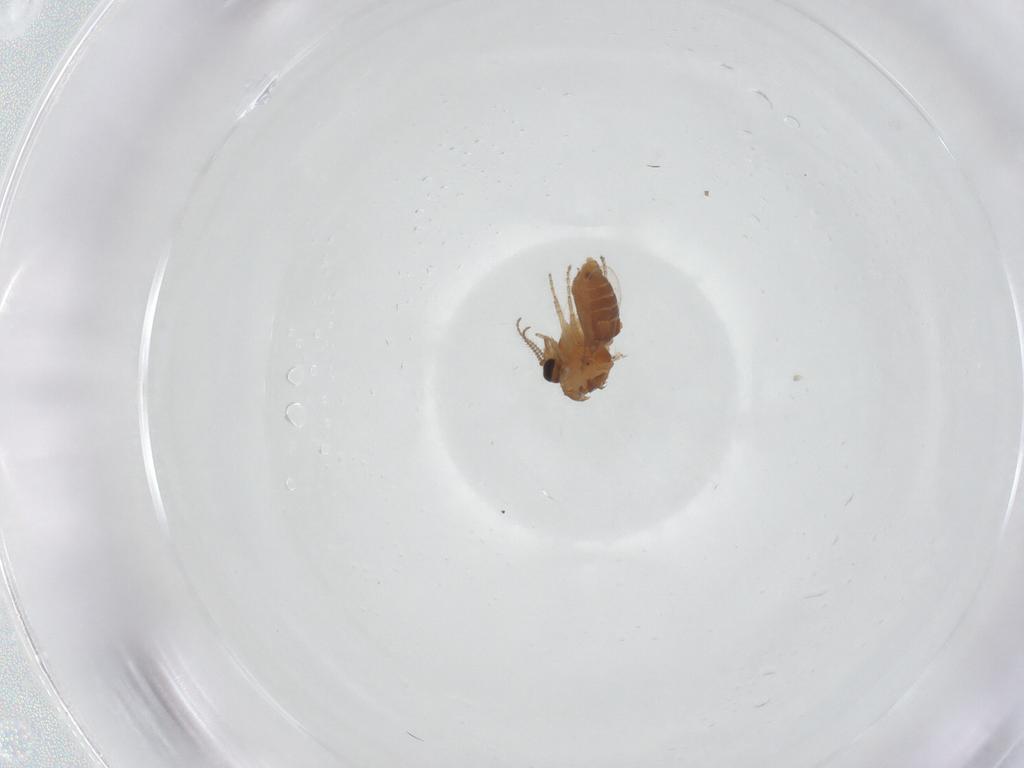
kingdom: Animalia
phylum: Arthropoda
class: Insecta
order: Diptera
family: Ceratopogonidae
